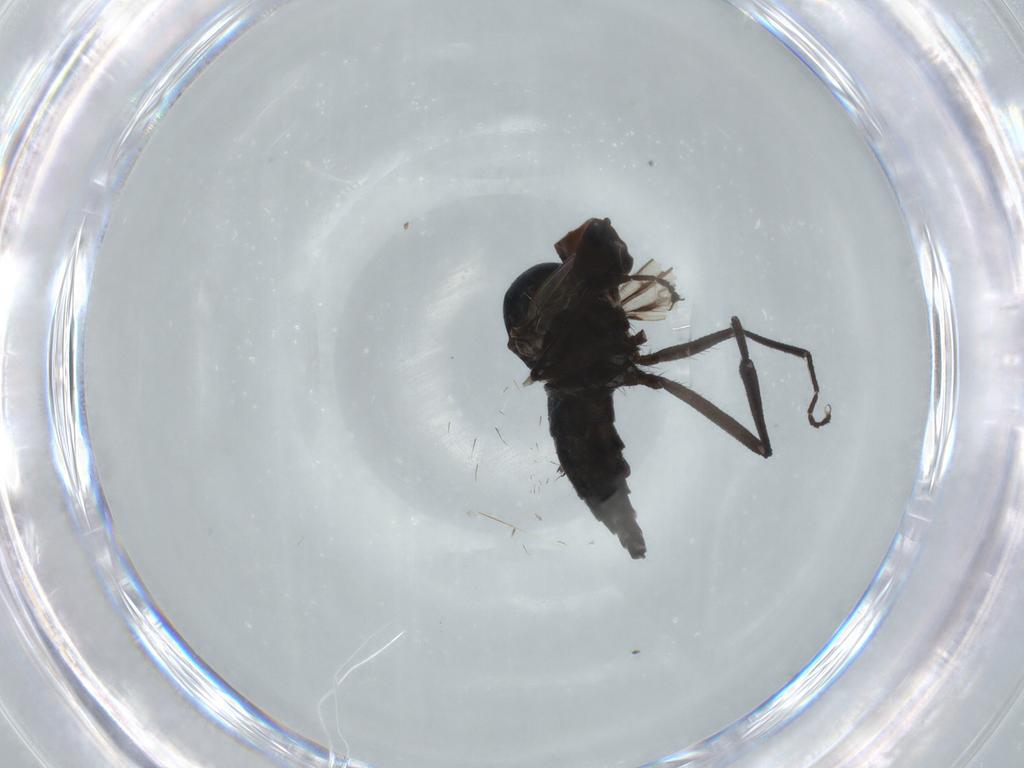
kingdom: Animalia
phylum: Arthropoda
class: Insecta
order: Diptera
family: Hybotidae
